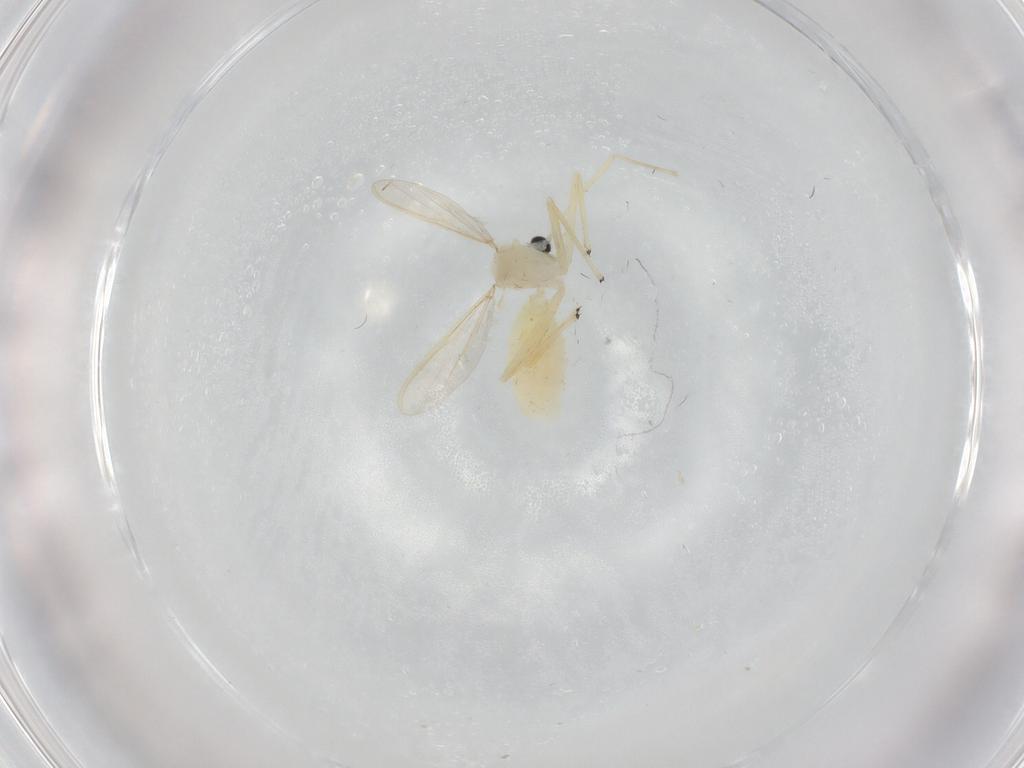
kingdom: Animalia
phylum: Arthropoda
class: Insecta
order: Diptera
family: Chironomidae
